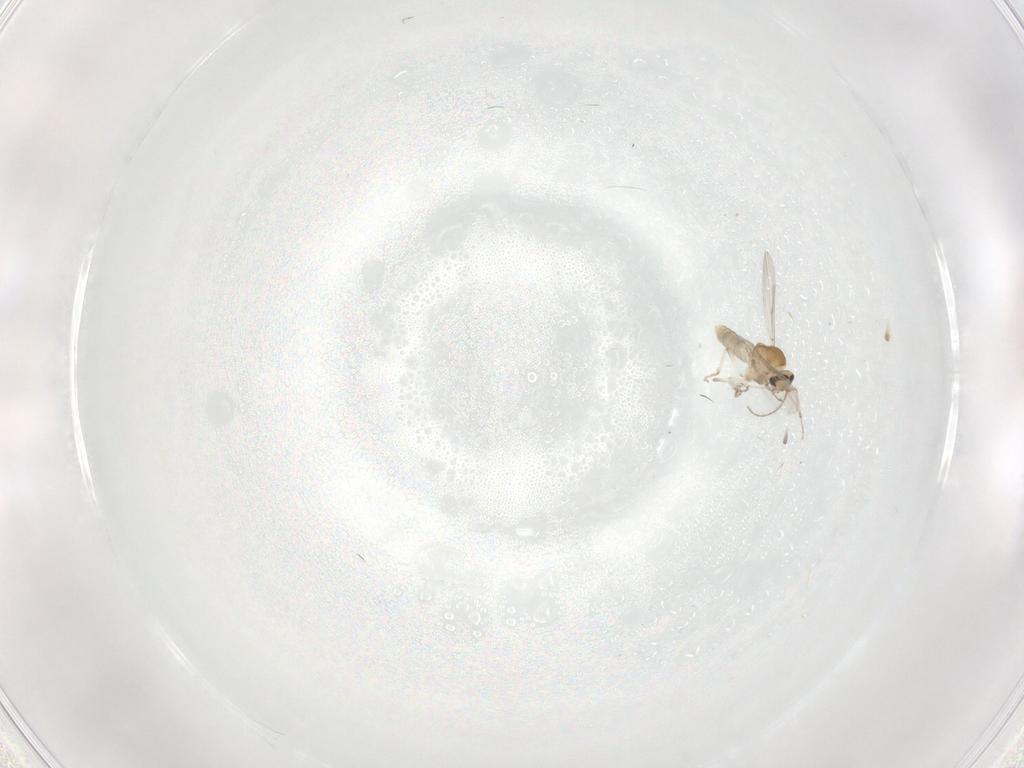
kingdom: Animalia
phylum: Arthropoda
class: Insecta
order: Diptera
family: Ceratopogonidae
